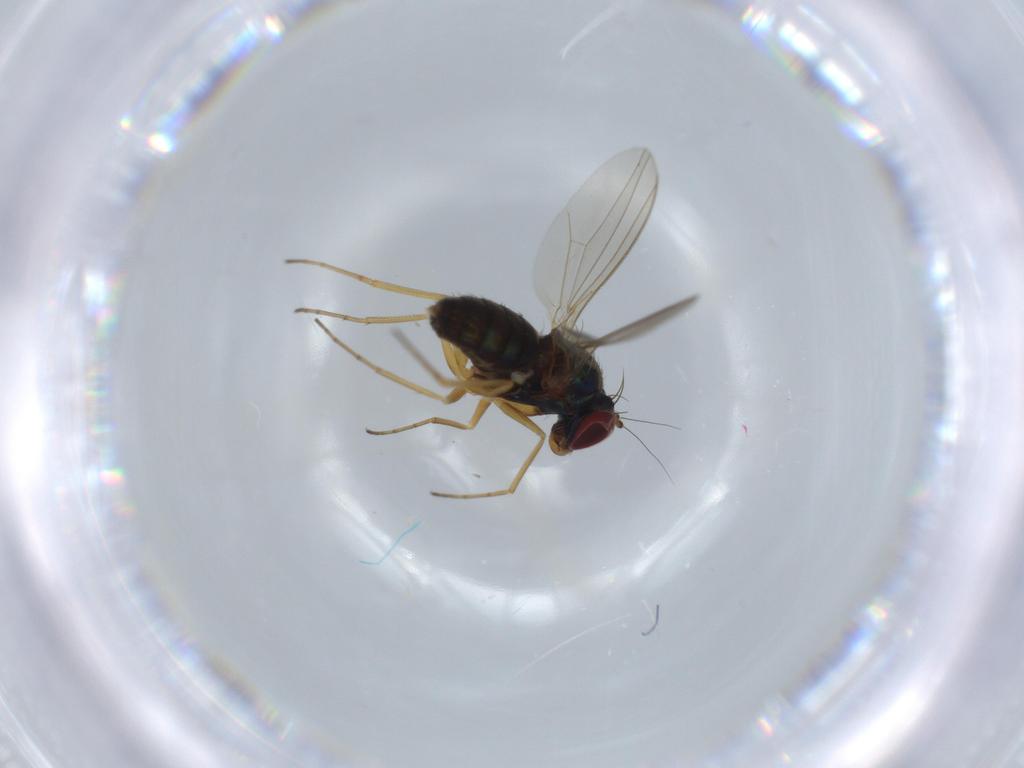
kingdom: Animalia
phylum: Arthropoda
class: Insecta
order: Diptera
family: Dolichopodidae
